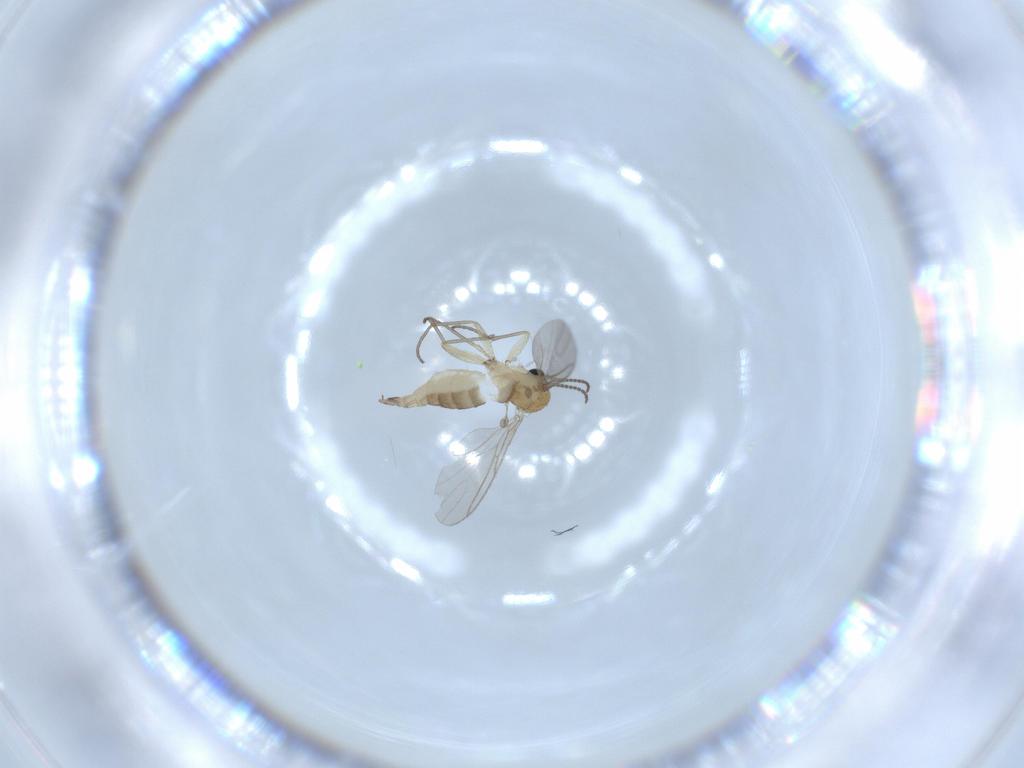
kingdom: Animalia
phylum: Arthropoda
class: Insecta
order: Diptera
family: Sciaridae
